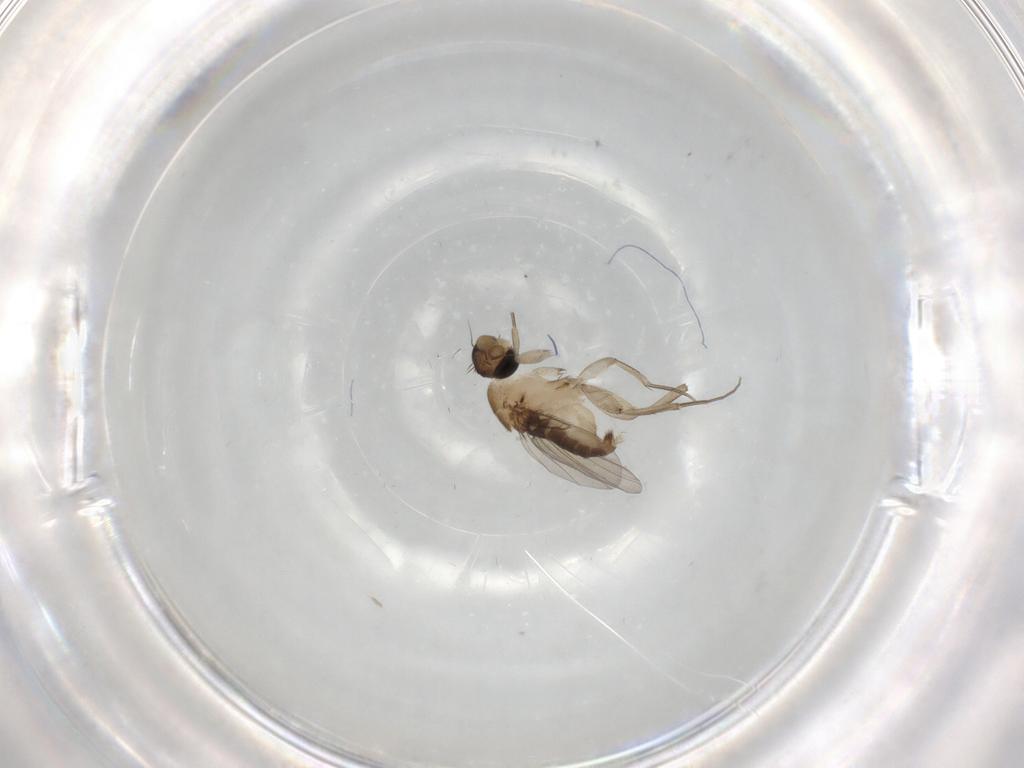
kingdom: Animalia
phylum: Arthropoda
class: Insecta
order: Diptera
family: Phoridae
